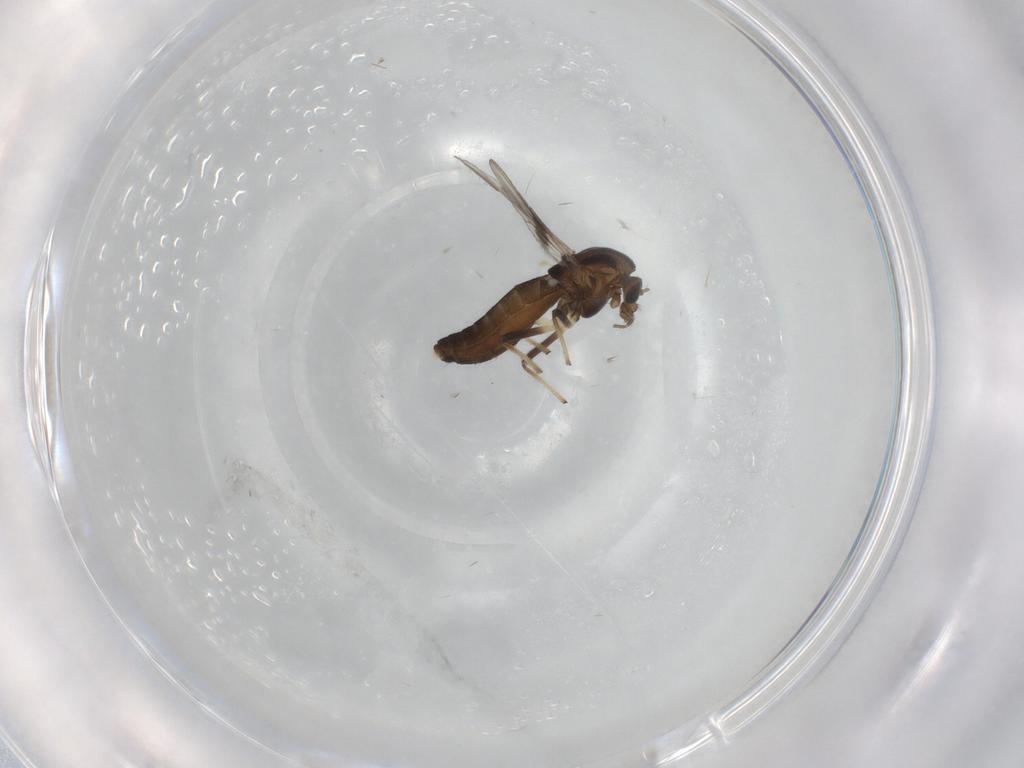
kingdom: Animalia
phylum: Arthropoda
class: Insecta
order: Diptera
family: Chironomidae
